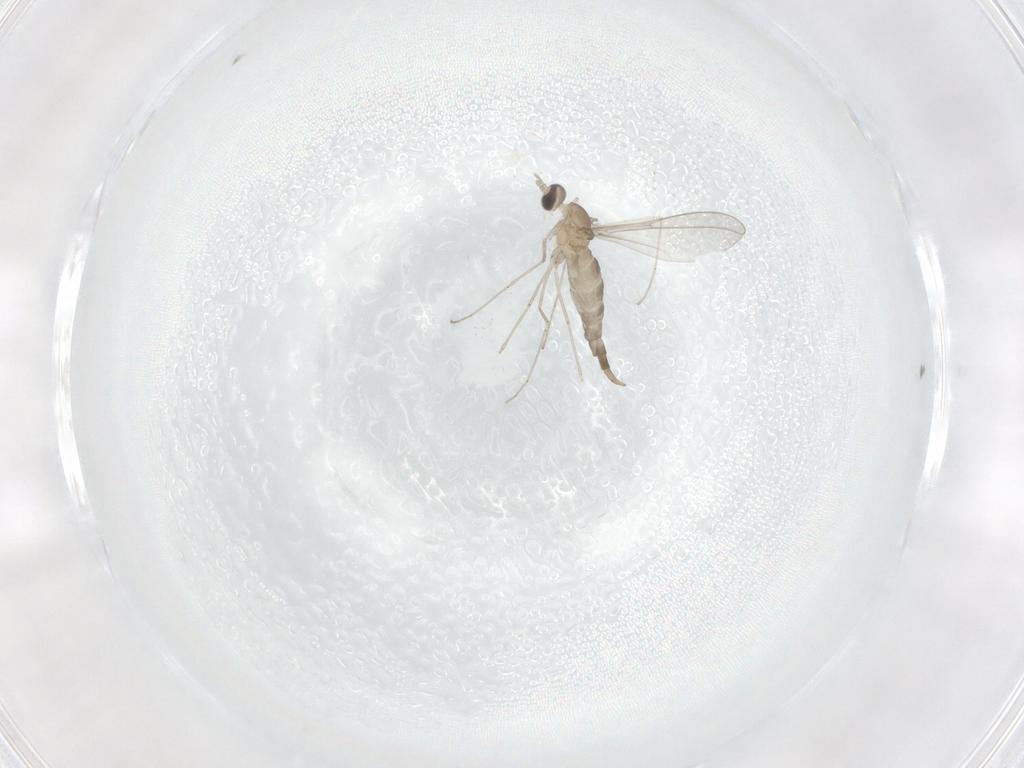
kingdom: Animalia
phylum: Arthropoda
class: Insecta
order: Diptera
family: Cecidomyiidae
